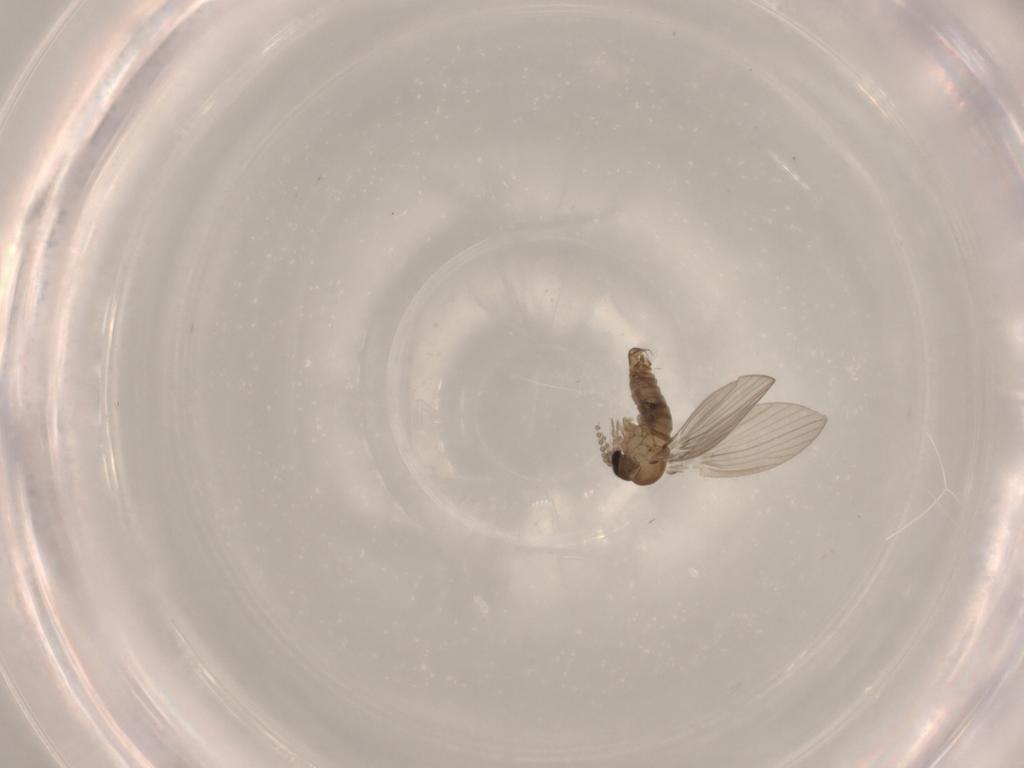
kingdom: Animalia
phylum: Arthropoda
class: Insecta
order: Diptera
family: Psychodidae
